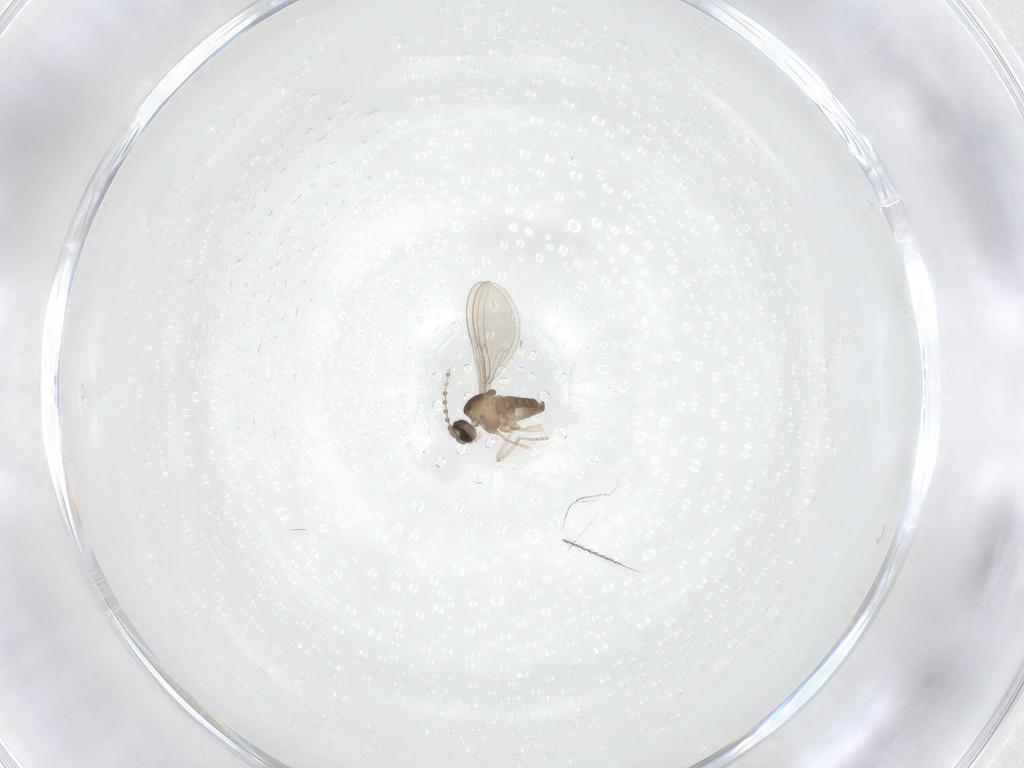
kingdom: Animalia
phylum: Arthropoda
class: Insecta
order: Diptera
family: Cecidomyiidae
